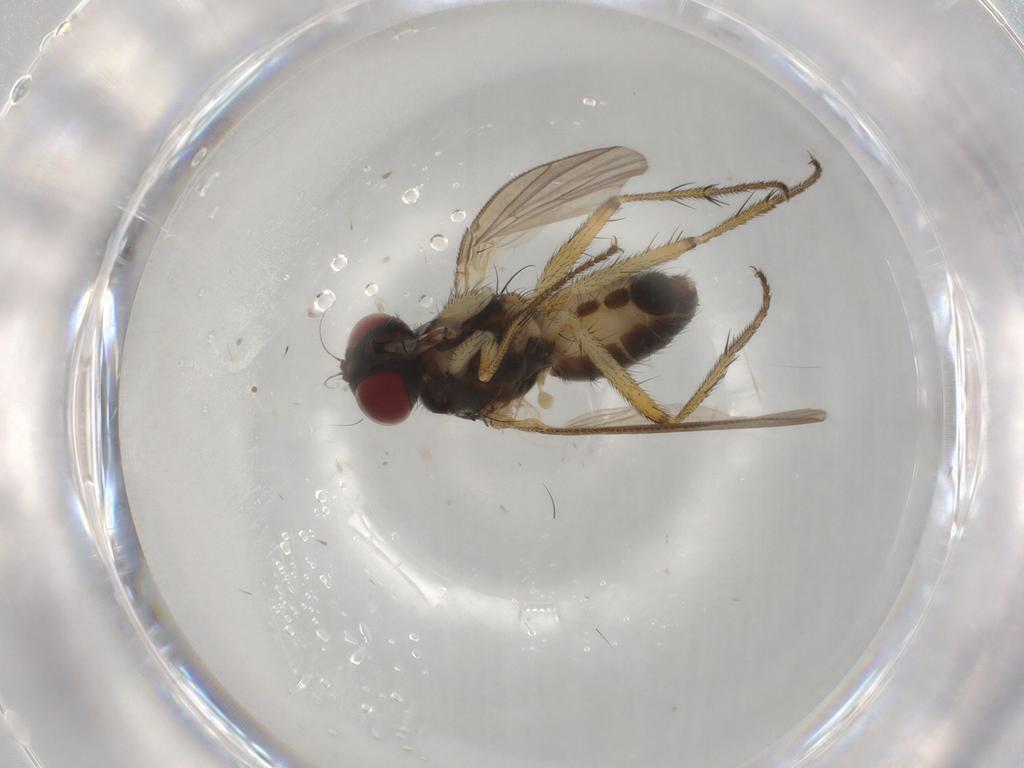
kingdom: Animalia
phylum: Arthropoda
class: Insecta
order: Diptera
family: Muscidae
